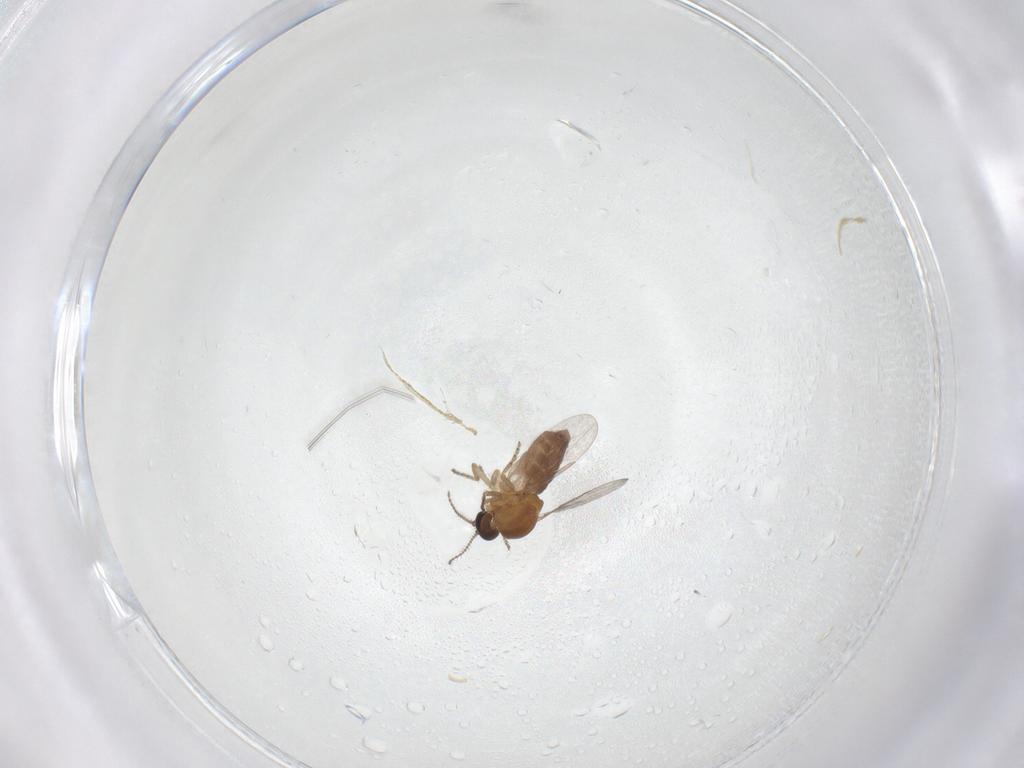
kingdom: Animalia
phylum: Arthropoda
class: Insecta
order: Diptera
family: Ceratopogonidae
